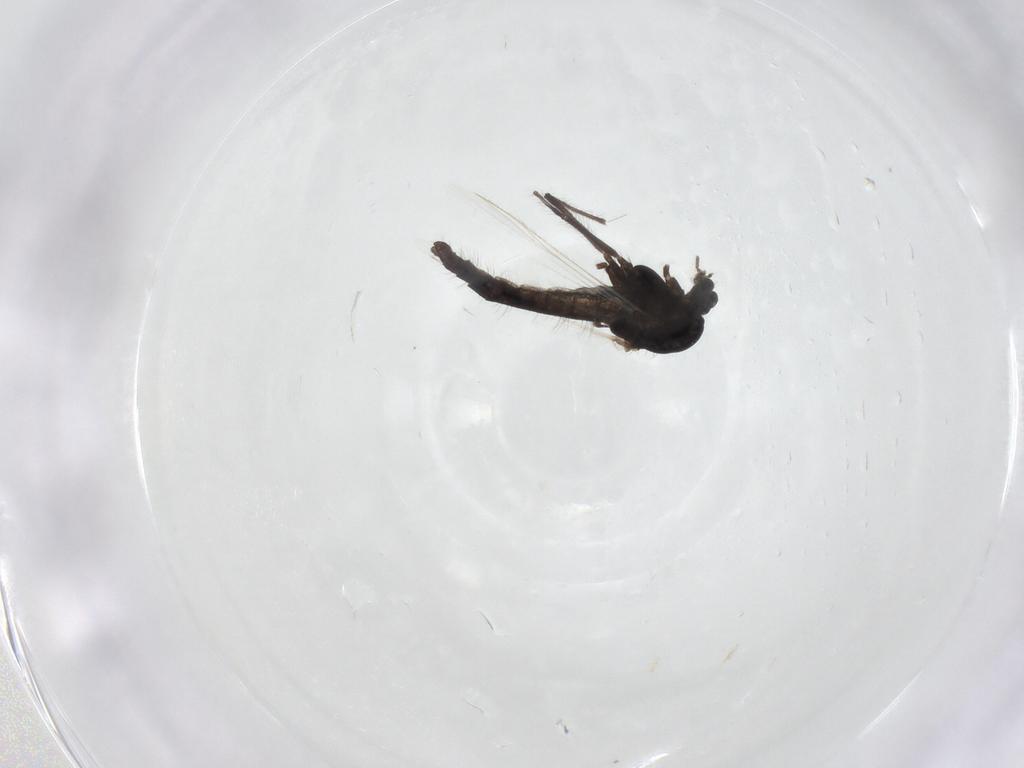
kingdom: Animalia
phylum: Arthropoda
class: Insecta
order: Diptera
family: Chironomidae
